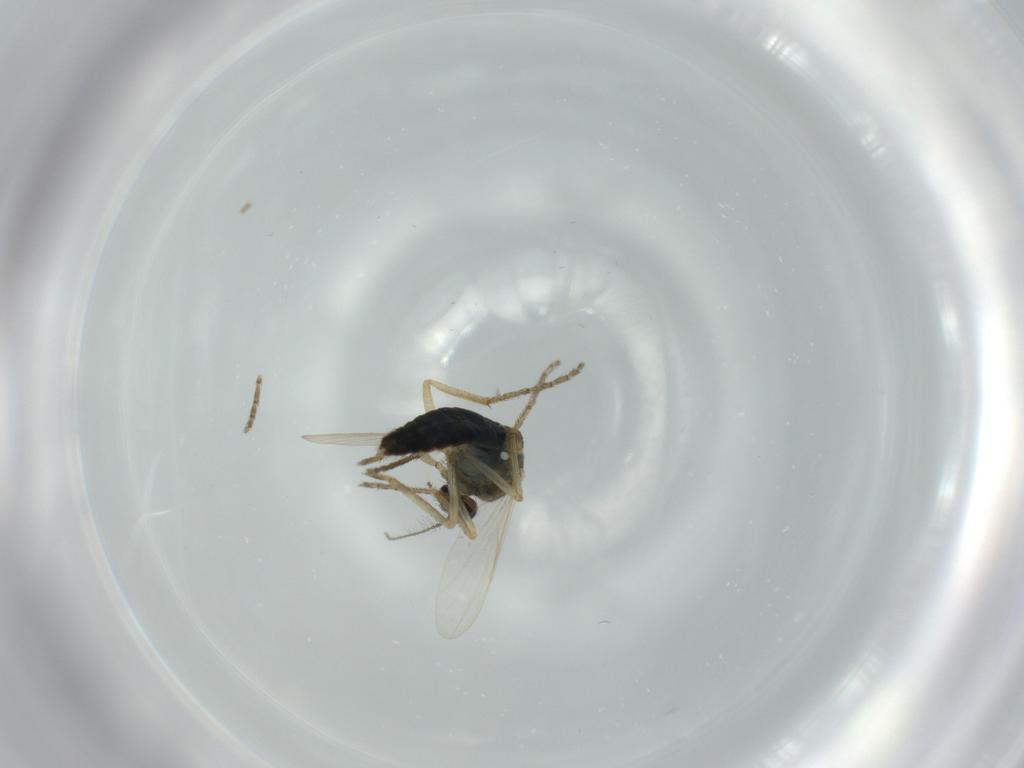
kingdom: Animalia
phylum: Arthropoda
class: Insecta
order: Diptera
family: Ceratopogonidae
